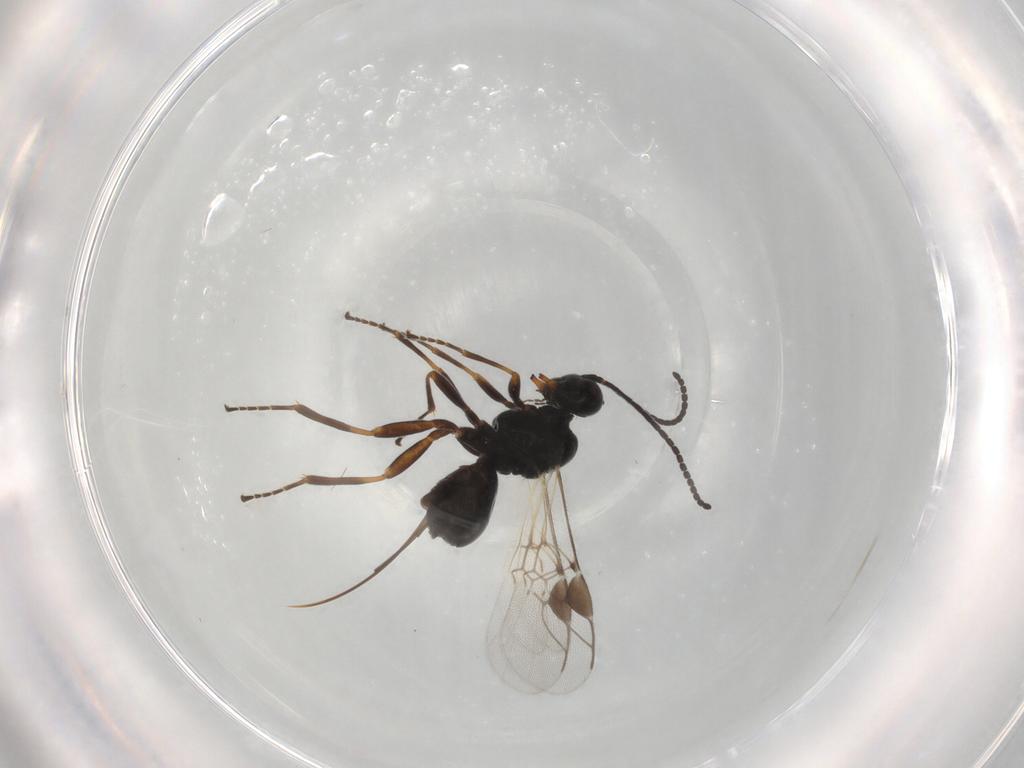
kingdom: Animalia
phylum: Arthropoda
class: Insecta
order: Hymenoptera
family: Braconidae
